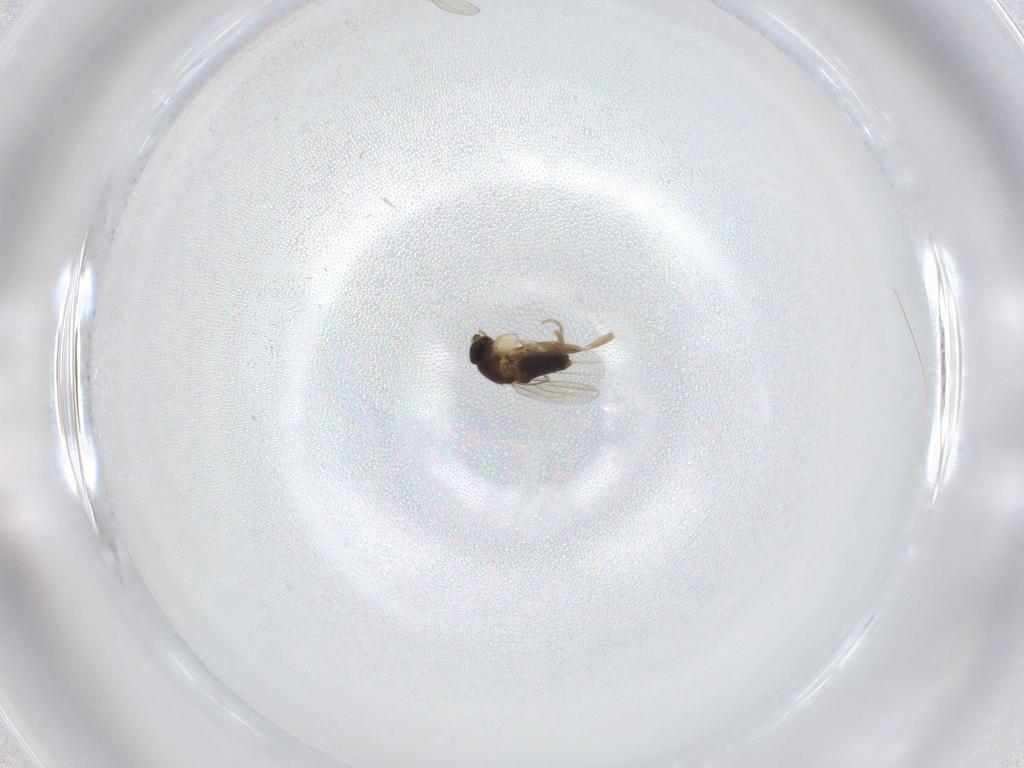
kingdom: Animalia
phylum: Arthropoda
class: Insecta
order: Diptera
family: Phoridae
